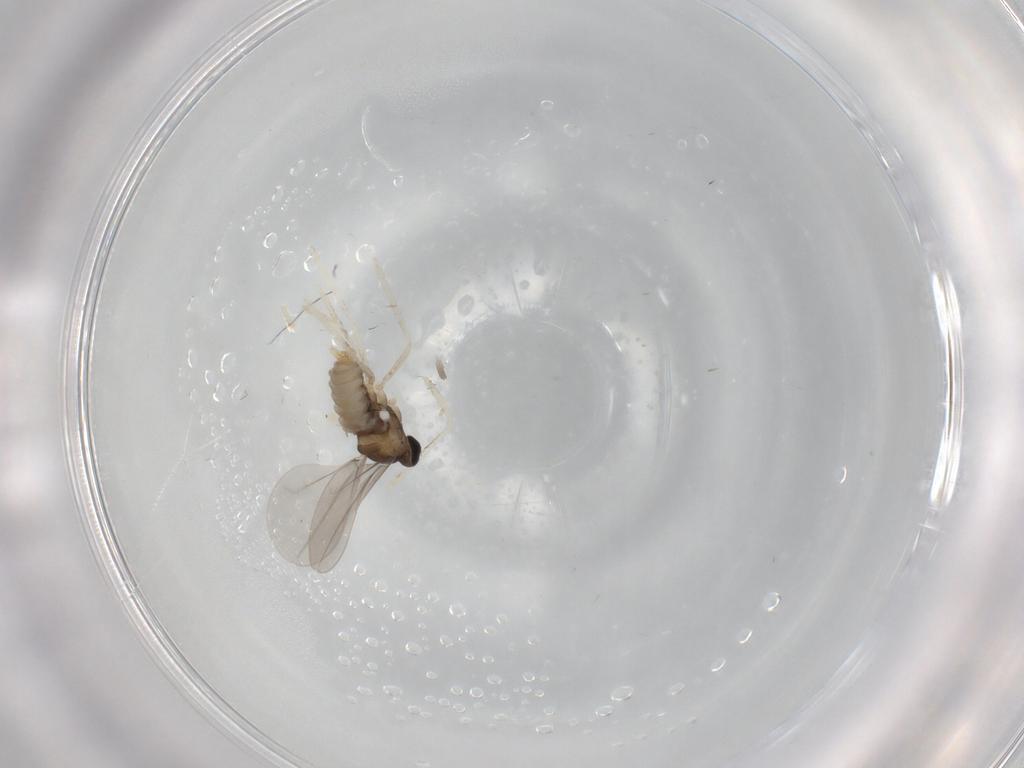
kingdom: Animalia
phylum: Arthropoda
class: Insecta
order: Diptera
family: Cecidomyiidae
